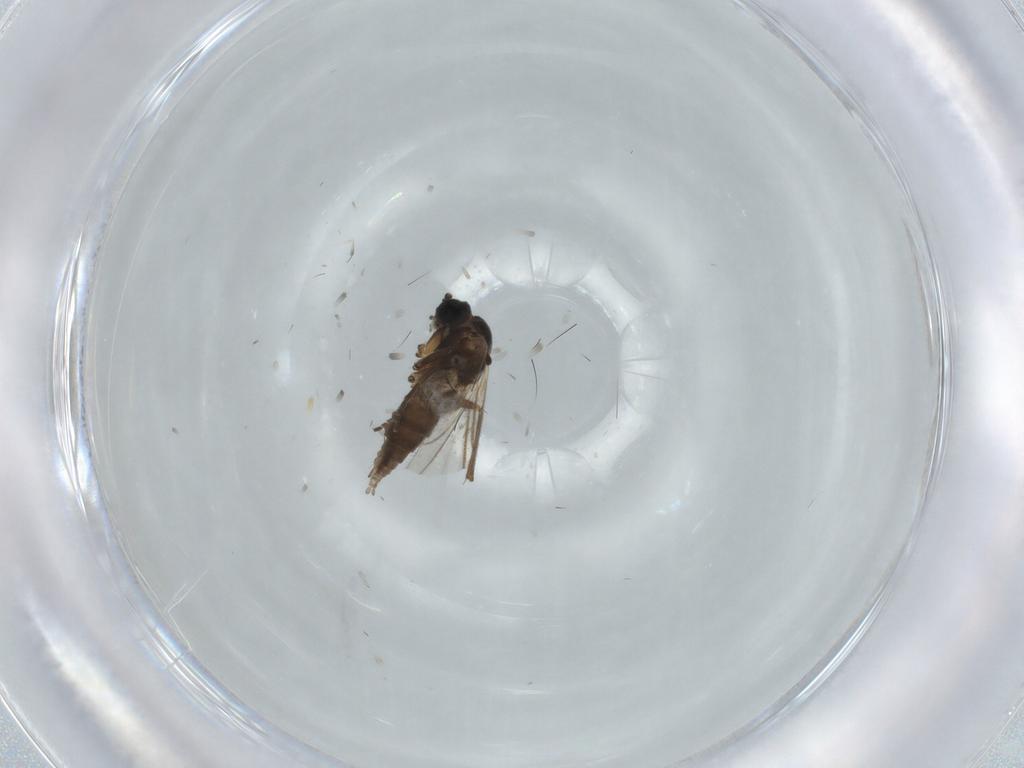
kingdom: Animalia
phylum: Arthropoda
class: Insecta
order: Diptera
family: Sciaridae
